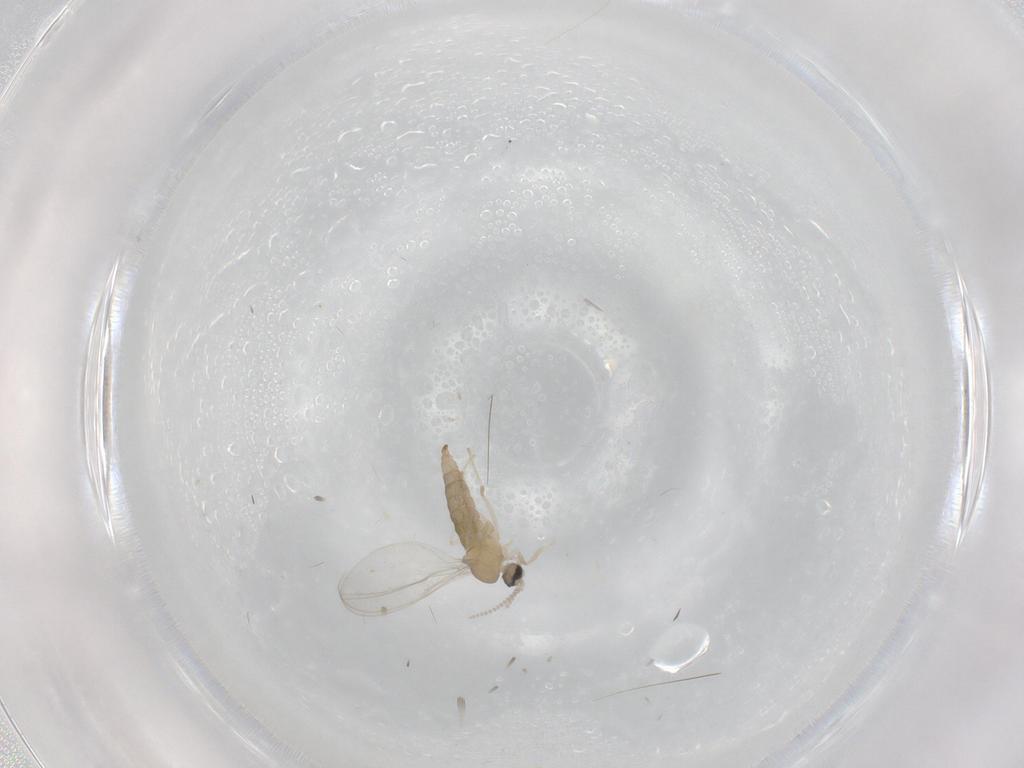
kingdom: Animalia
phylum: Arthropoda
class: Insecta
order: Diptera
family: Cecidomyiidae
